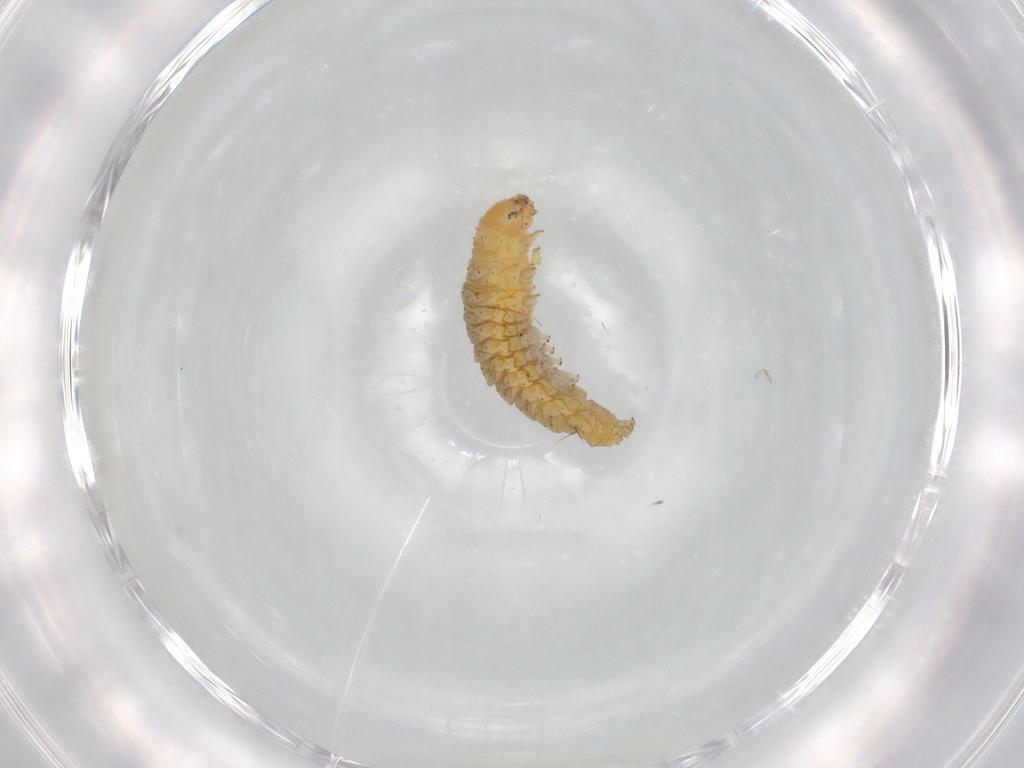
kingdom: Animalia
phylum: Arthropoda
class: Insecta
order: Lepidoptera
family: Epermeniidae
